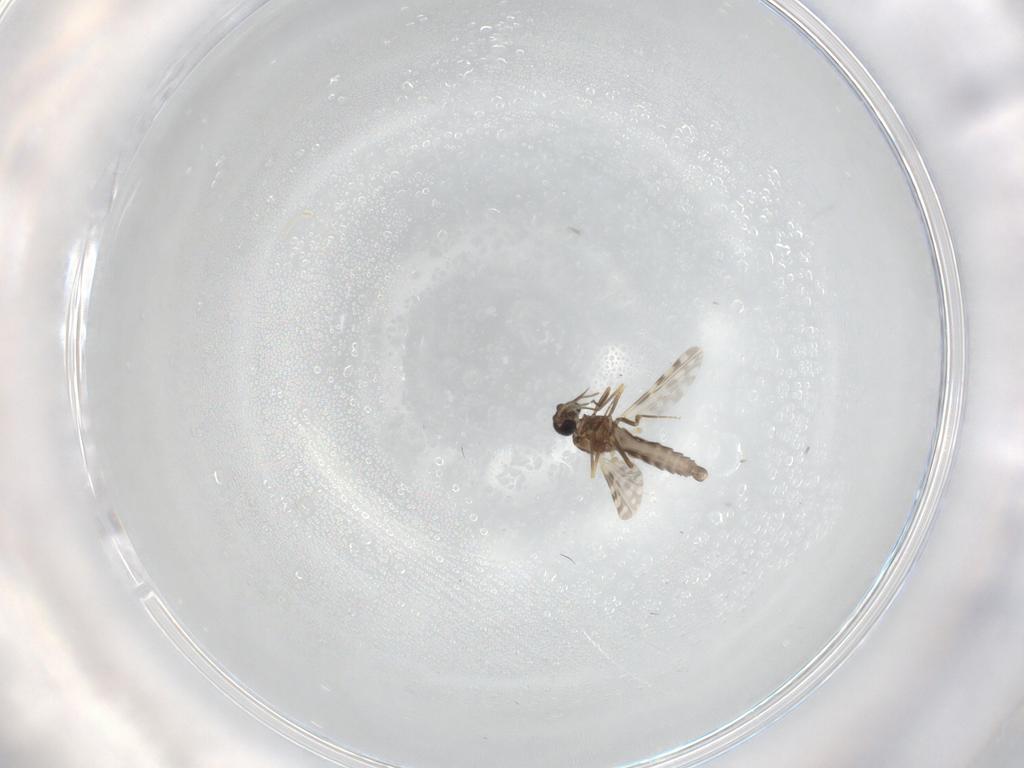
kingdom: Animalia
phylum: Arthropoda
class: Insecta
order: Diptera
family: Ceratopogonidae
